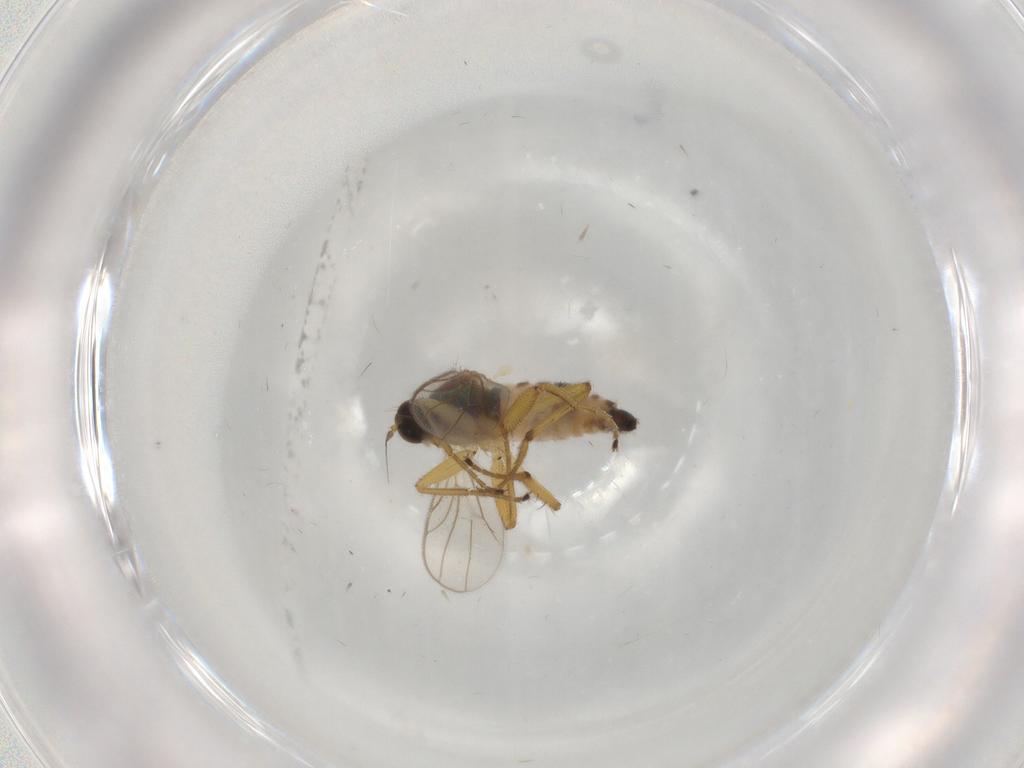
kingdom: Animalia
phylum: Arthropoda
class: Insecta
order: Diptera
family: Hybotidae
